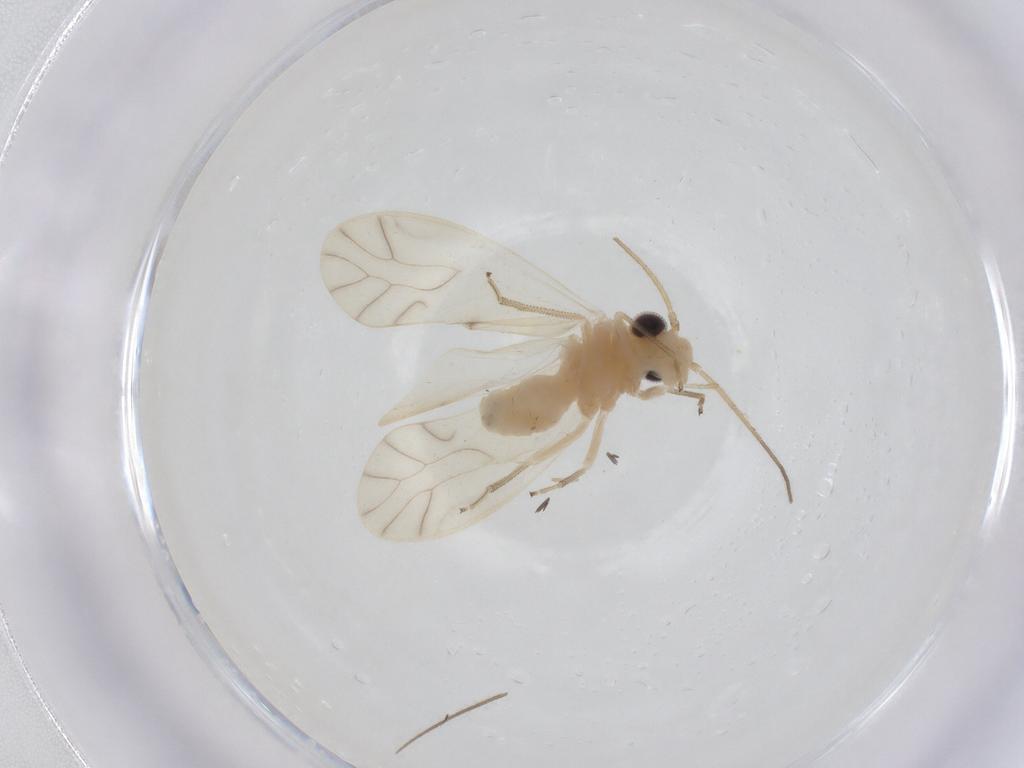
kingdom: Animalia
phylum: Arthropoda
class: Insecta
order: Psocodea
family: Caeciliusidae
